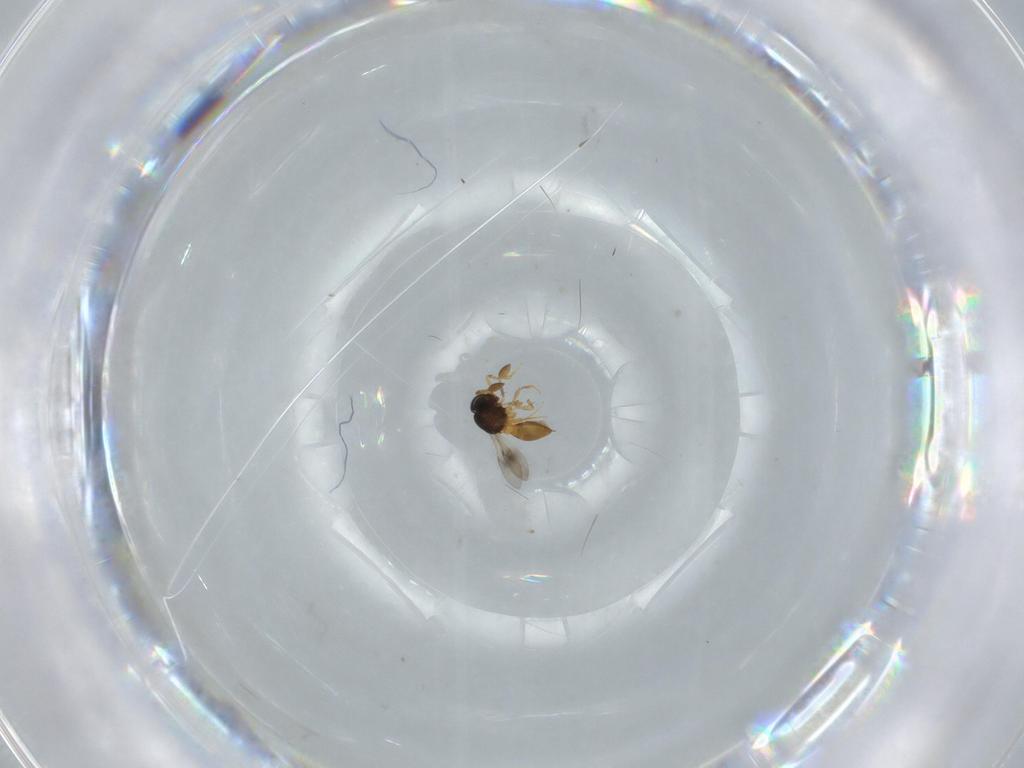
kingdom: Animalia
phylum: Arthropoda
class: Insecta
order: Hymenoptera
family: Scelionidae
